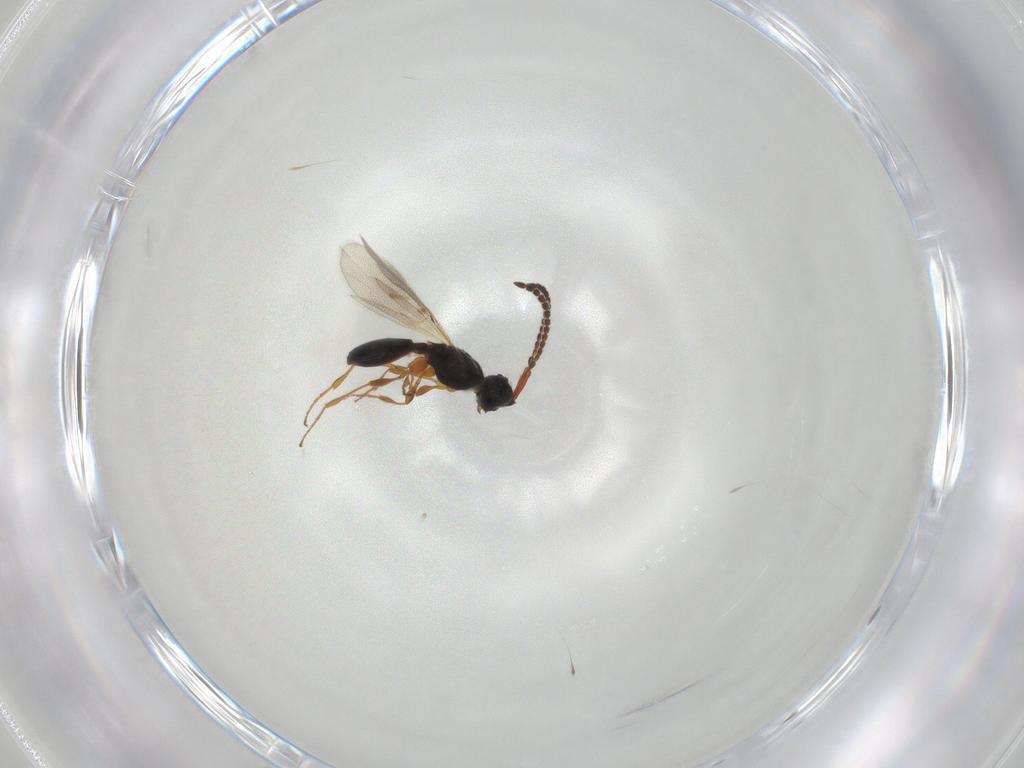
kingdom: Animalia
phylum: Arthropoda
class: Insecta
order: Hymenoptera
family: Diapriidae
